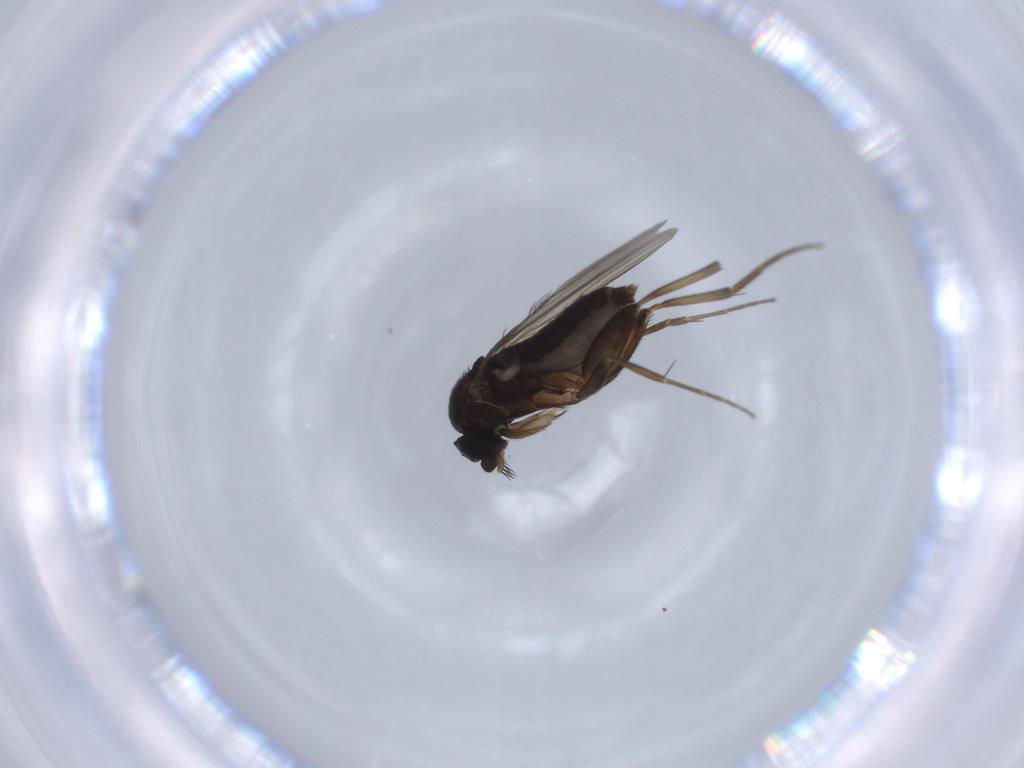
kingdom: Animalia
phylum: Arthropoda
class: Insecta
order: Diptera
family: Phoridae
